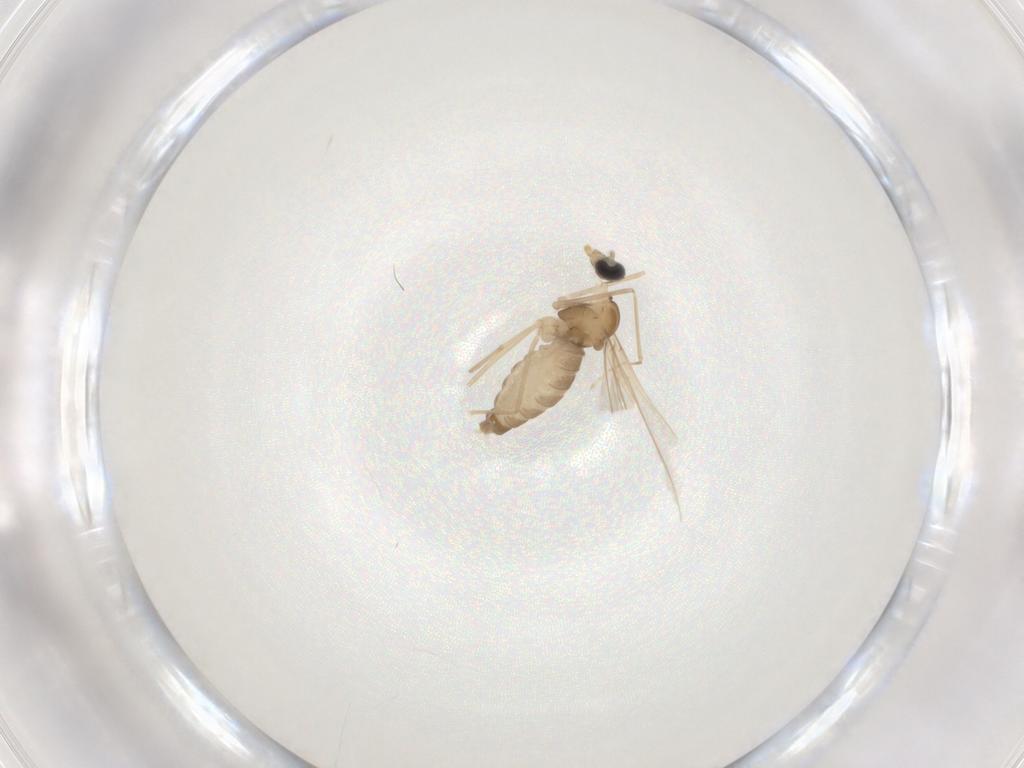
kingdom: Animalia
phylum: Arthropoda
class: Insecta
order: Diptera
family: Cecidomyiidae
